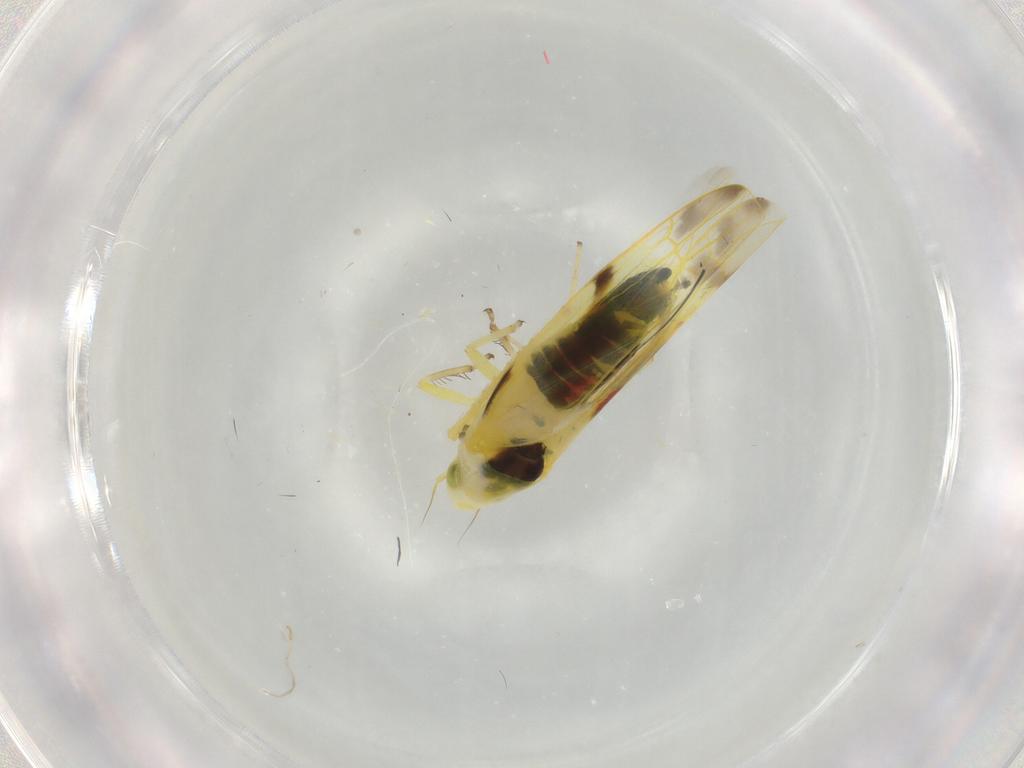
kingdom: Animalia
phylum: Arthropoda
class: Insecta
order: Hemiptera
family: Cicadellidae
